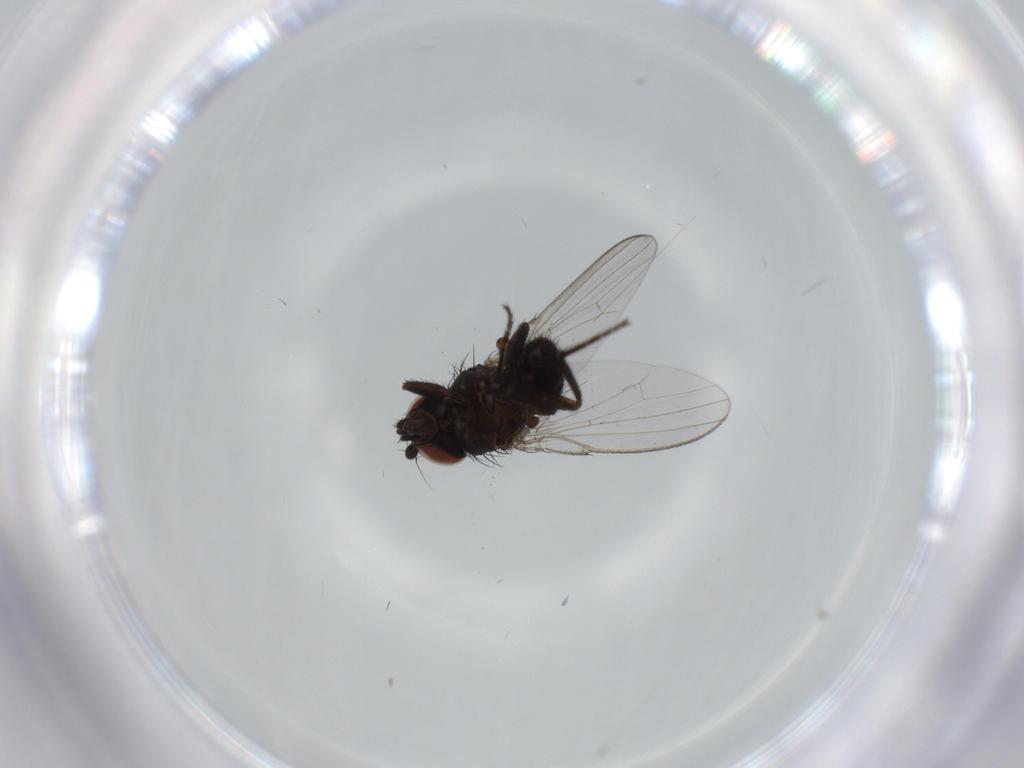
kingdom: Animalia
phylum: Arthropoda
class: Insecta
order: Diptera
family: Milichiidae
